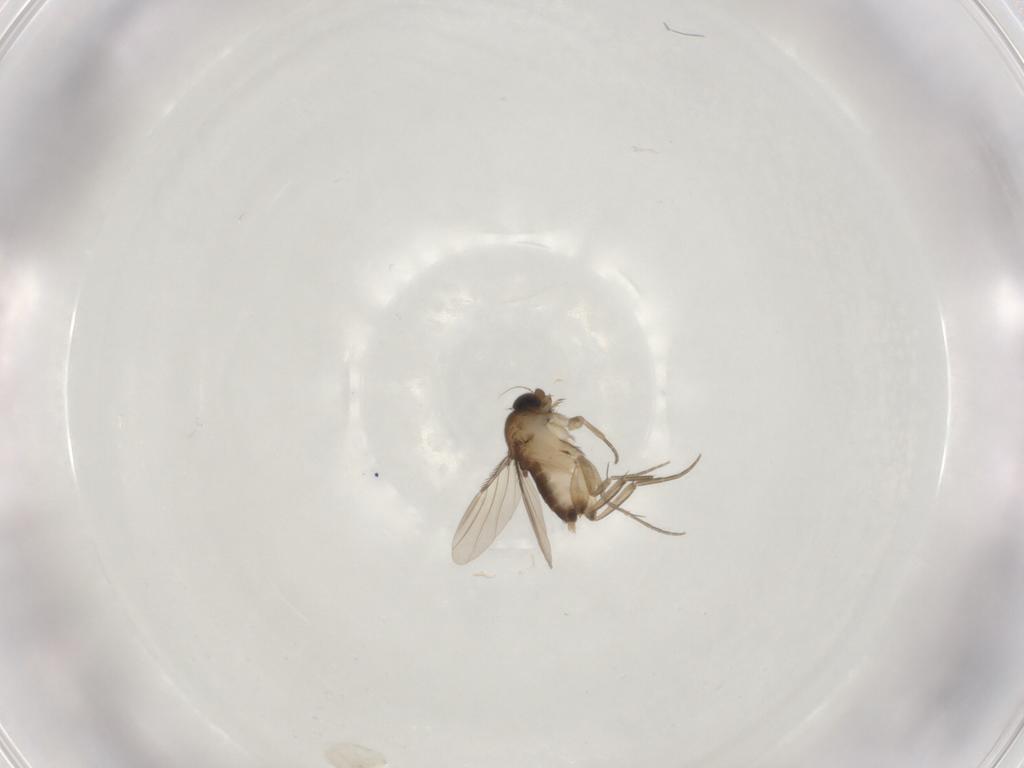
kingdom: Animalia
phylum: Arthropoda
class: Insecta
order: Diptera
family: Phoridae
